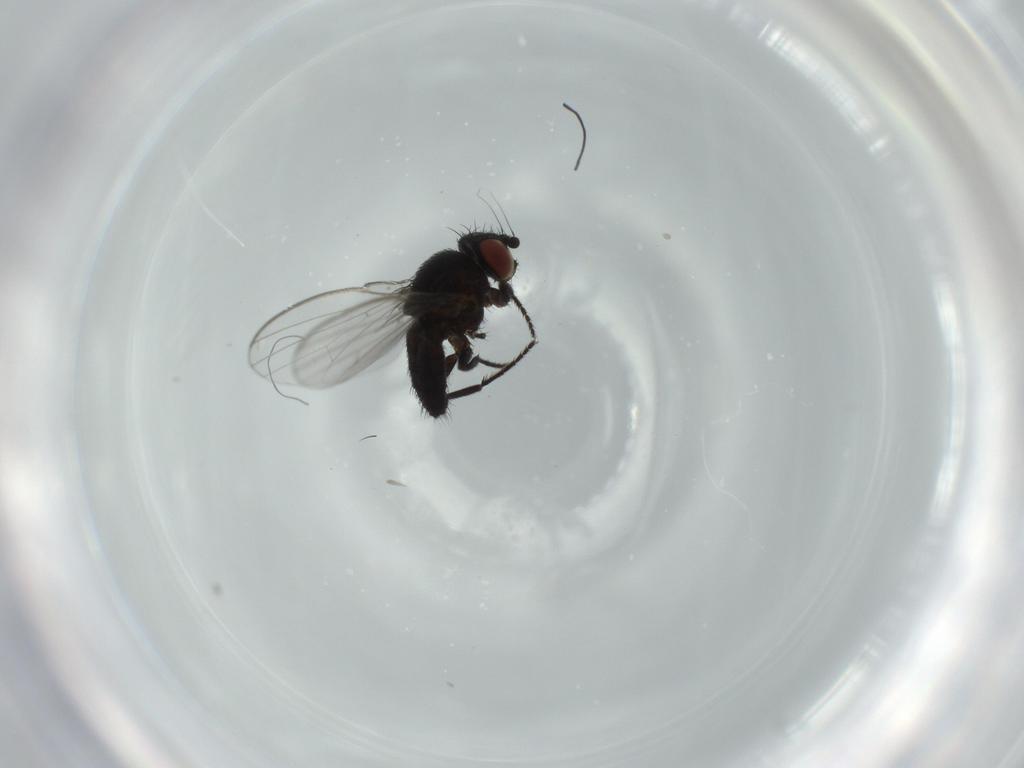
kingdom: Animalia
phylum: Arthropoda
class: Insecta
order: Diptera
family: Milichiidae
